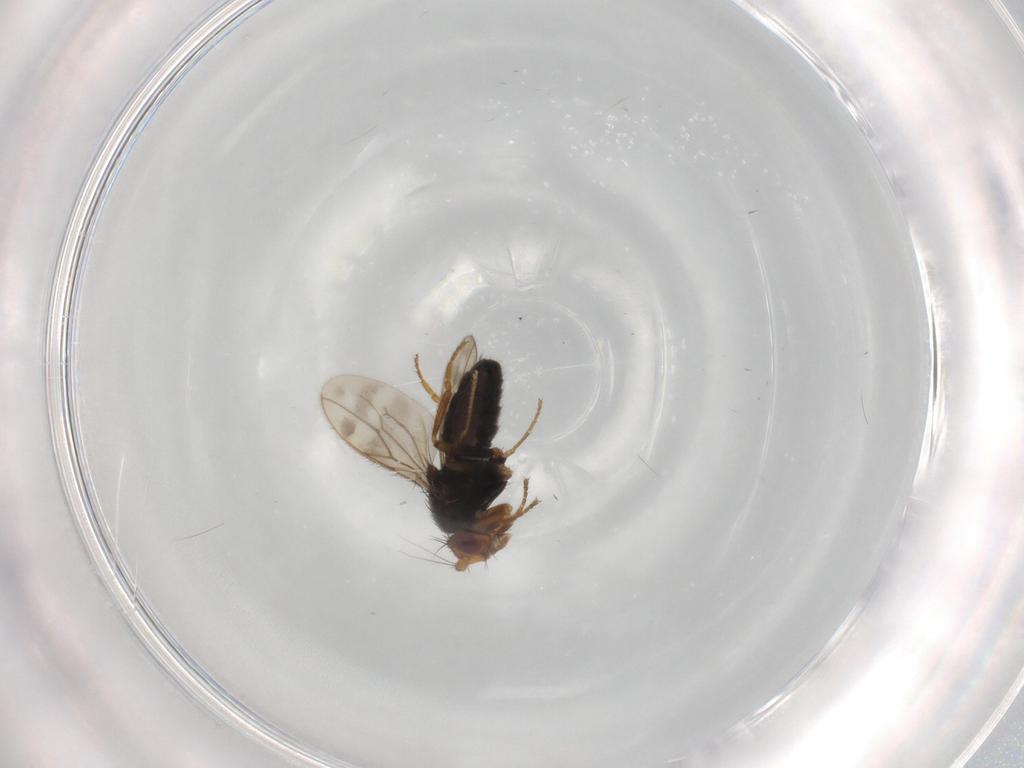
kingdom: Animalia
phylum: Arthropoda
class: Insecta
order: Diptera
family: Sphaeroceridae
